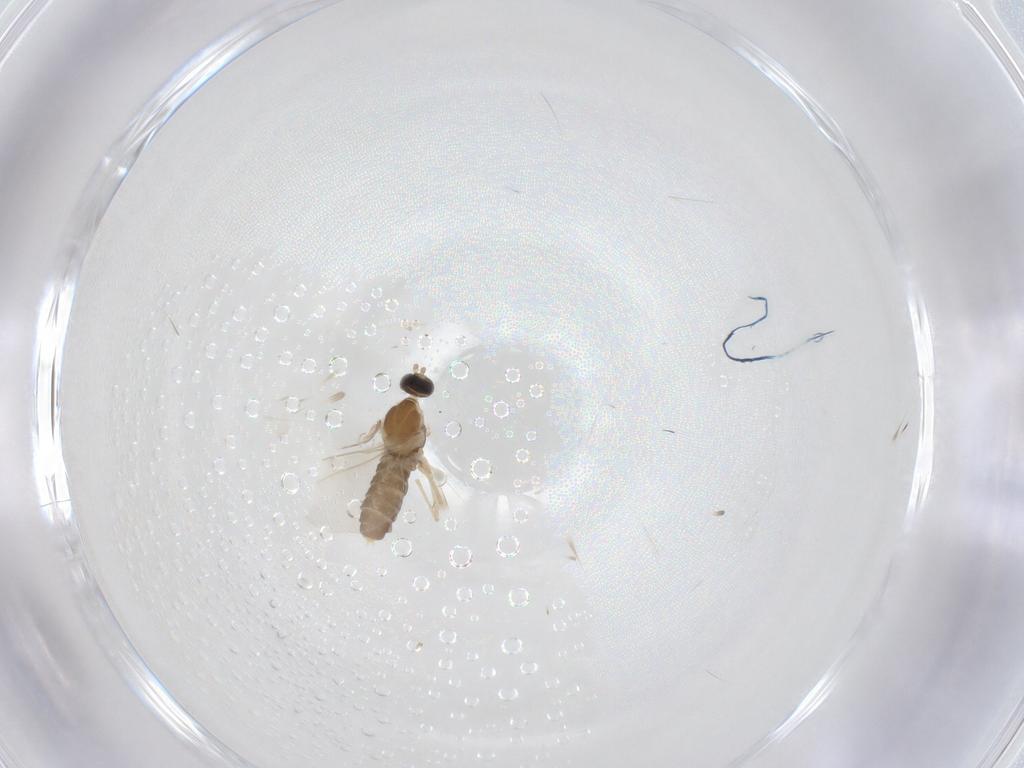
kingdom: Animalia
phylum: Arthropoda
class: Insecta
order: Diptera
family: Cecidomyiidae
